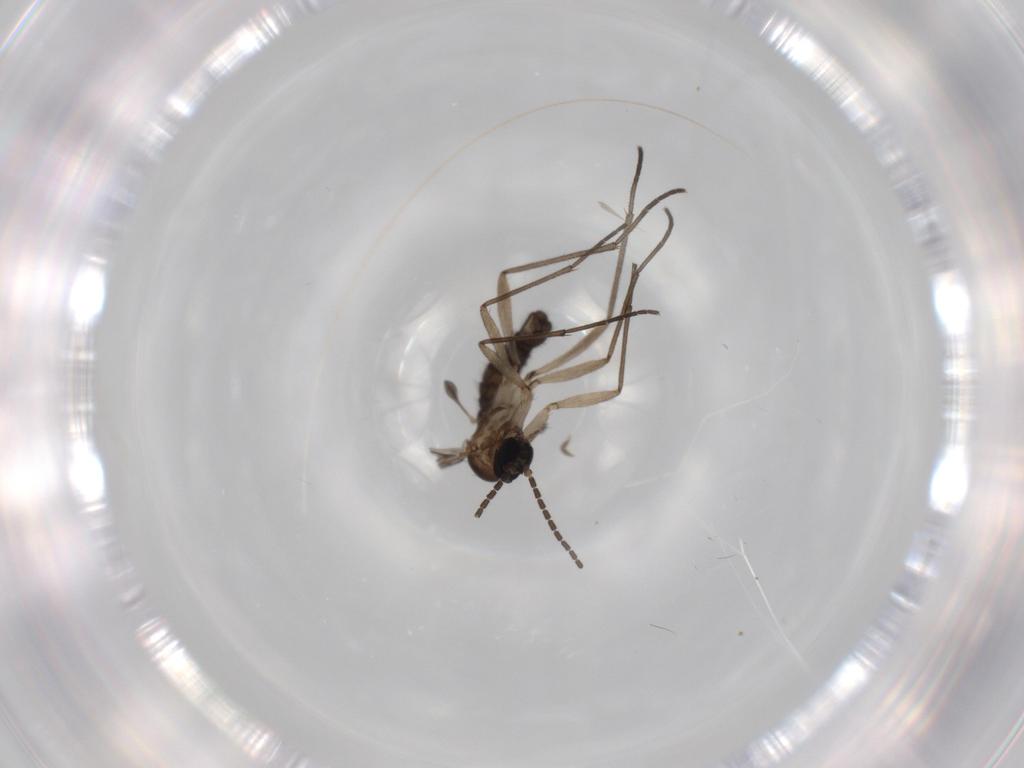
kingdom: Animalia
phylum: Arthropoda
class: Insecta
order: Diptera
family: Sciaridae
